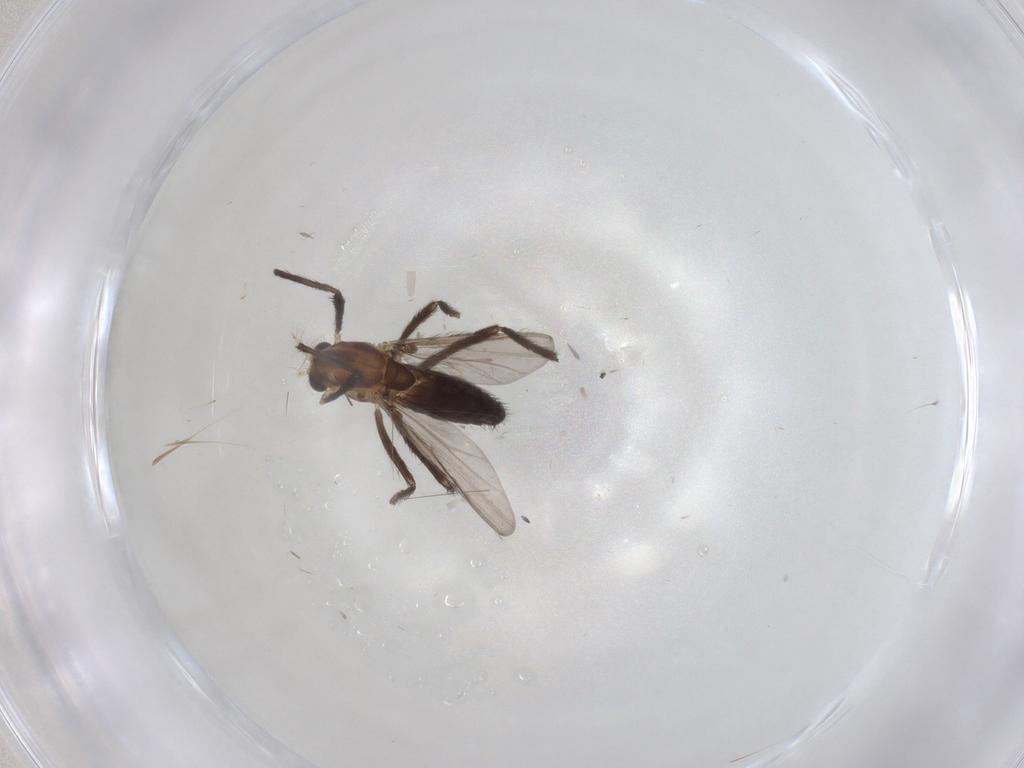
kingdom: Animalia
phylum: Arthropoda
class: Insecta
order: Diptera
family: Chironomidae
